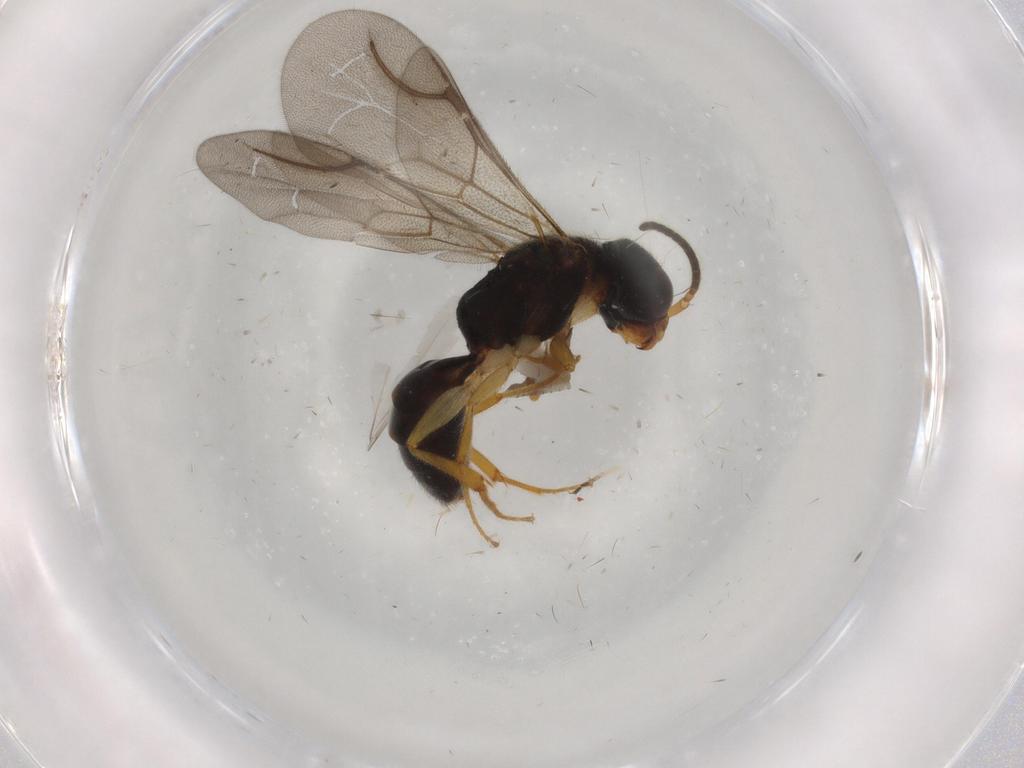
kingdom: Animalia
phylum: Arthropoda
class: Insecta
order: Hymenoptera
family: Bethylidae
